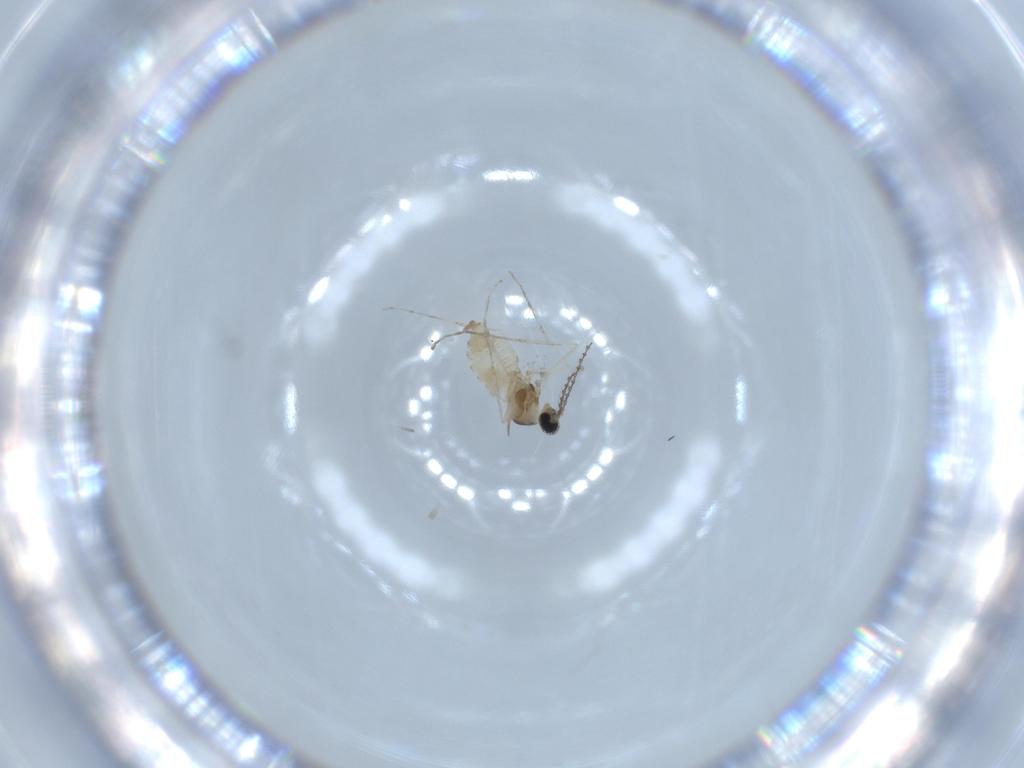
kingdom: Animalia
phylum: Arthropoda
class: Insecta
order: Diptera
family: Cecidomyiidae
